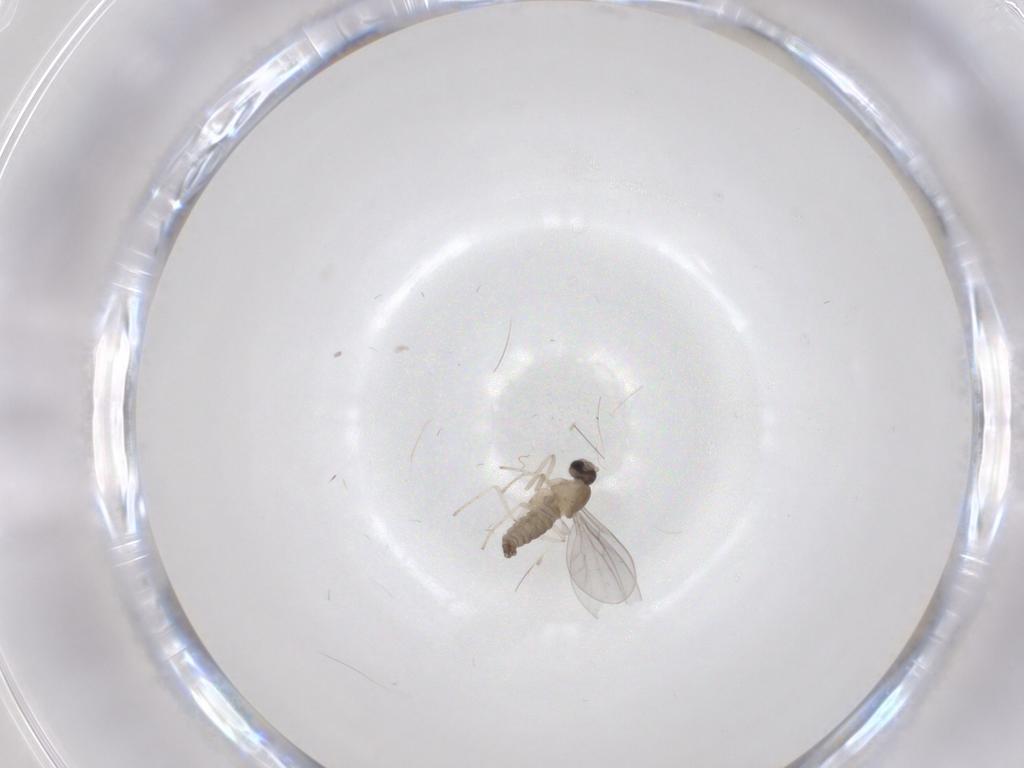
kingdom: Animalia
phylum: Arthropoda
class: Insecta
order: Diptera
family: Cecidomyiidae
